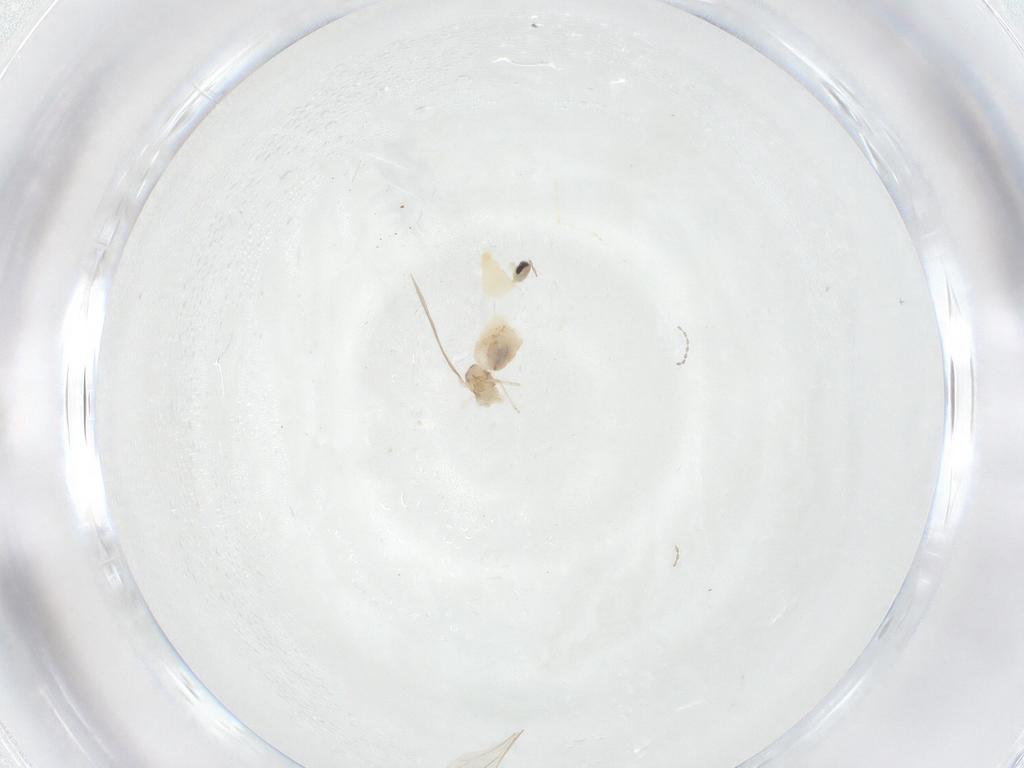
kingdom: Animalia
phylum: Arthropoda
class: Insecta
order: Diptera
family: Cecidomyiidae
